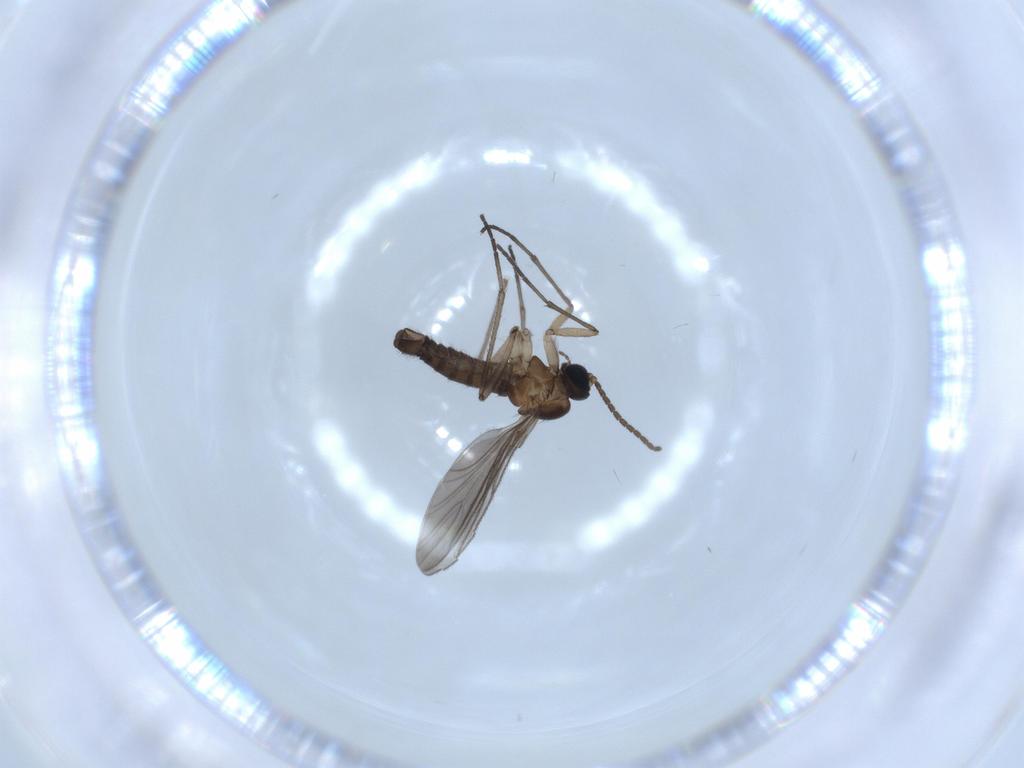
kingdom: Animalia
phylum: Arthropoda
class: Insecta
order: Diptera
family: Sciaridae
